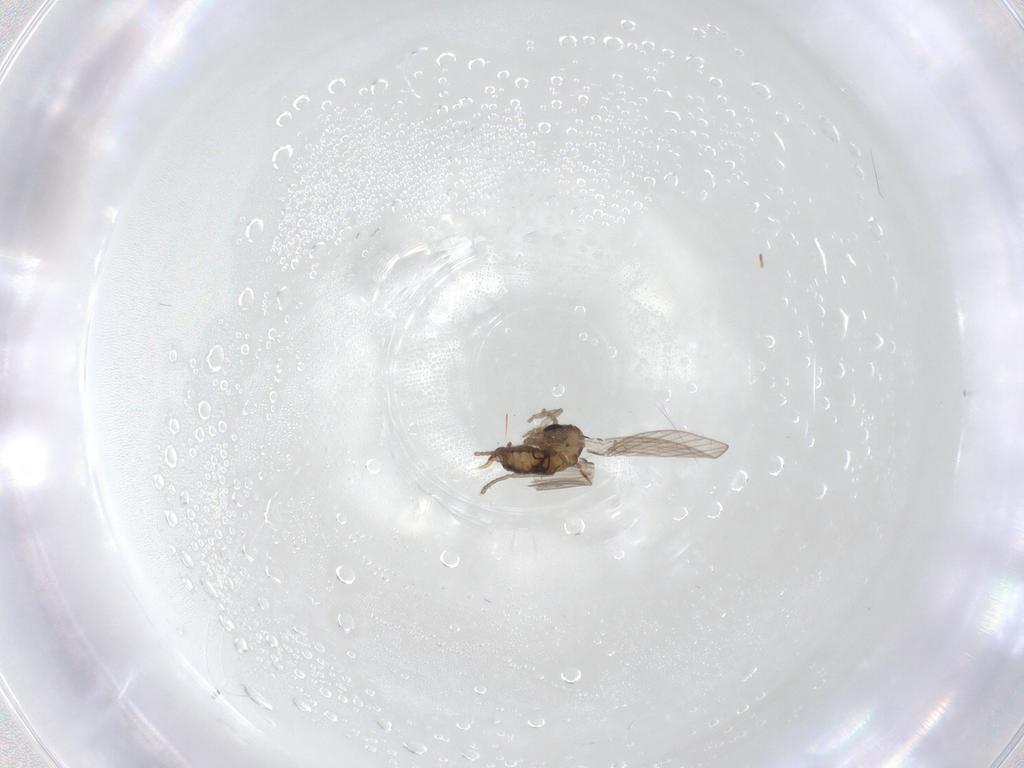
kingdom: Animalia
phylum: Arthropoda
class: Insecta
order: Diptera
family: Psychodidae
